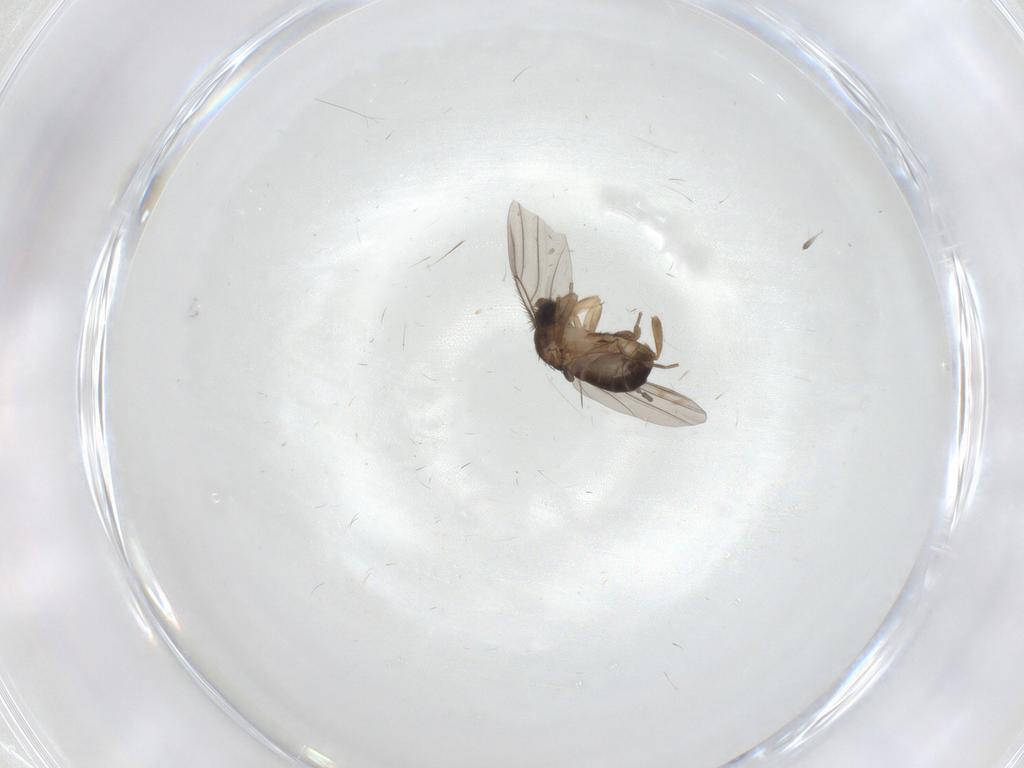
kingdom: Animalia
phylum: Arthropoda
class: Insecta
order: Diptera
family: Sciaridae
